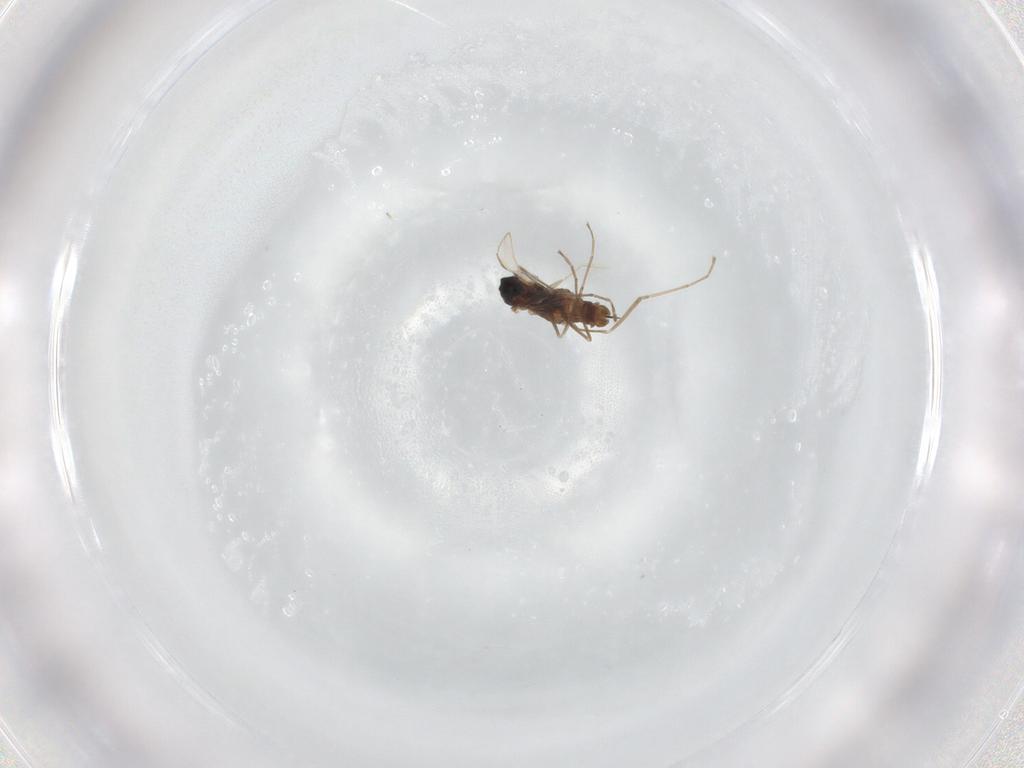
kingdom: Animalia
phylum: Arthropoda
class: Insecta
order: Diptera
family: Cecidomyiidae
